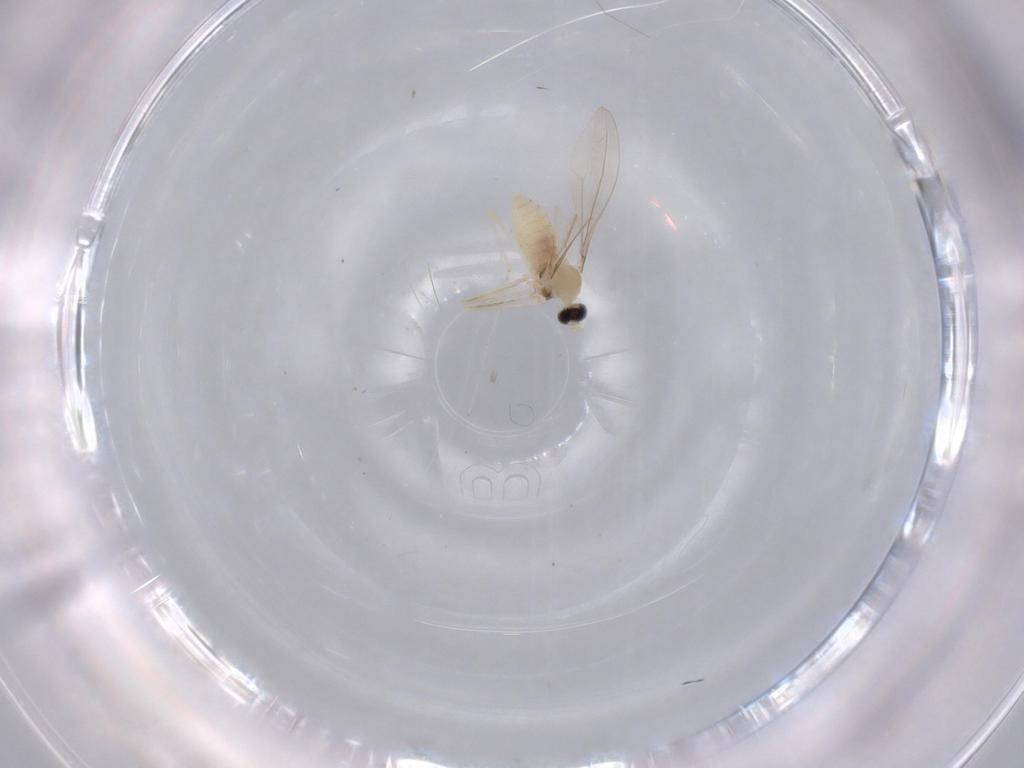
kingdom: Animalia
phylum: Arthropoda
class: Insecta
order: Diptera
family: Cecidomyiidae
